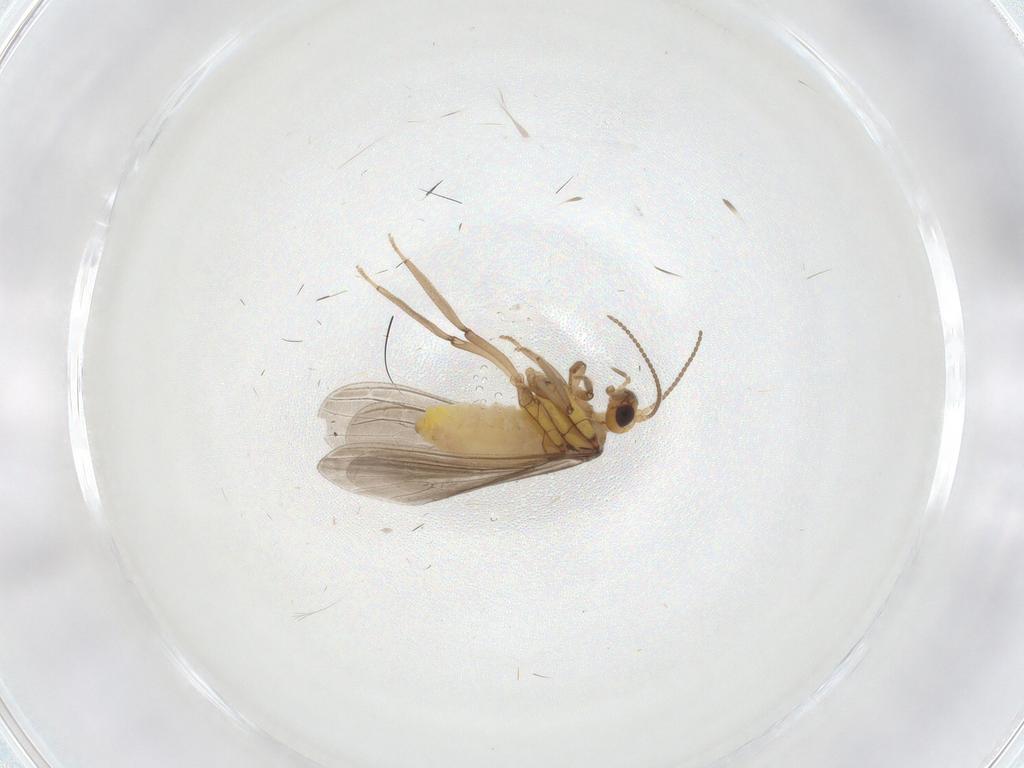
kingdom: Animalia
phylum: Arthropoda
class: Insecta
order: Neuroptera
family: Coniopterygidae
